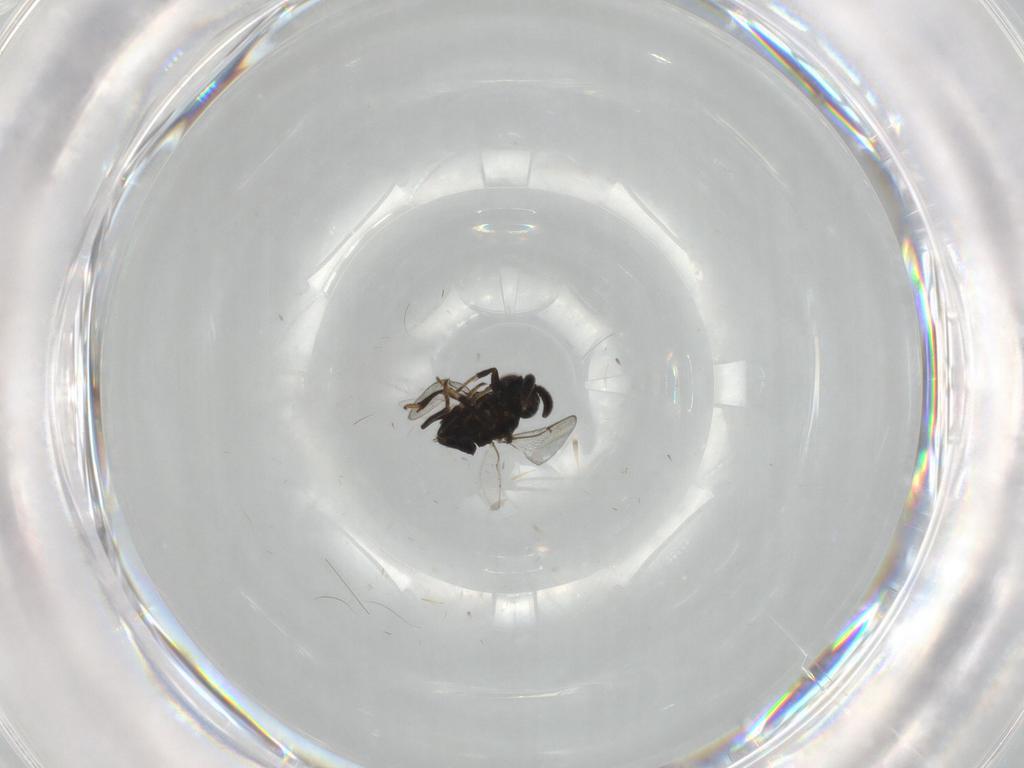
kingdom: Animalia
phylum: Arthropoda
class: Insecta
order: Hymenoptera
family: Encyrtidae
